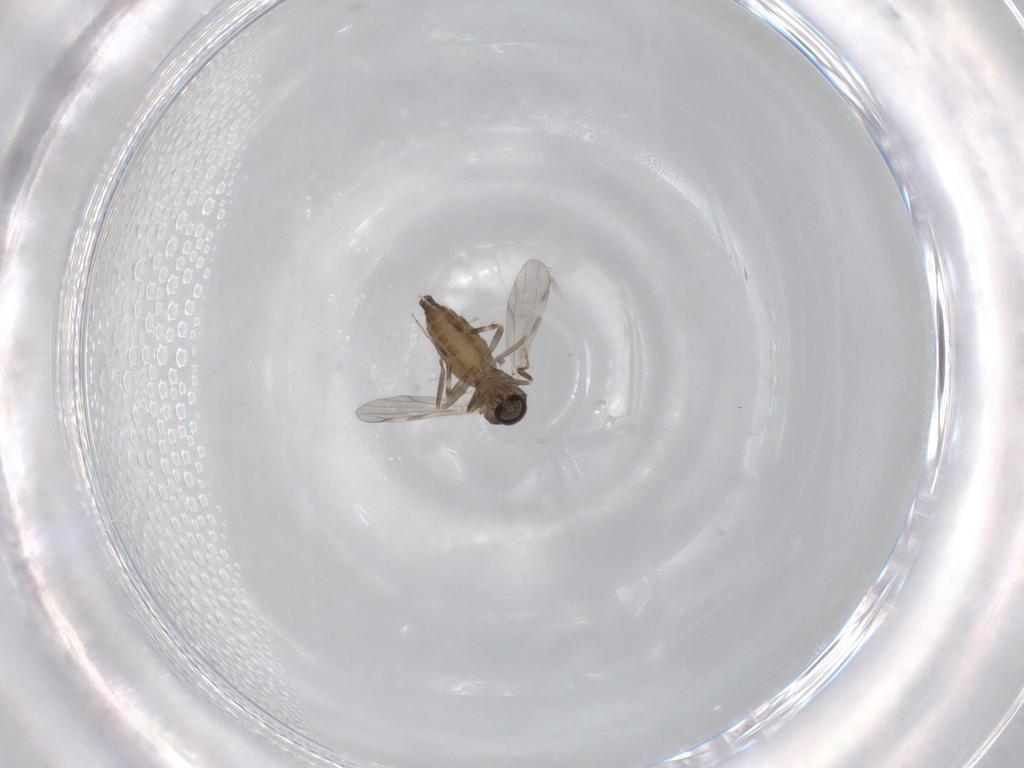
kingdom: Animalia
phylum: Arthropoda
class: Insecta
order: Diptera
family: Ceratopogonidae
